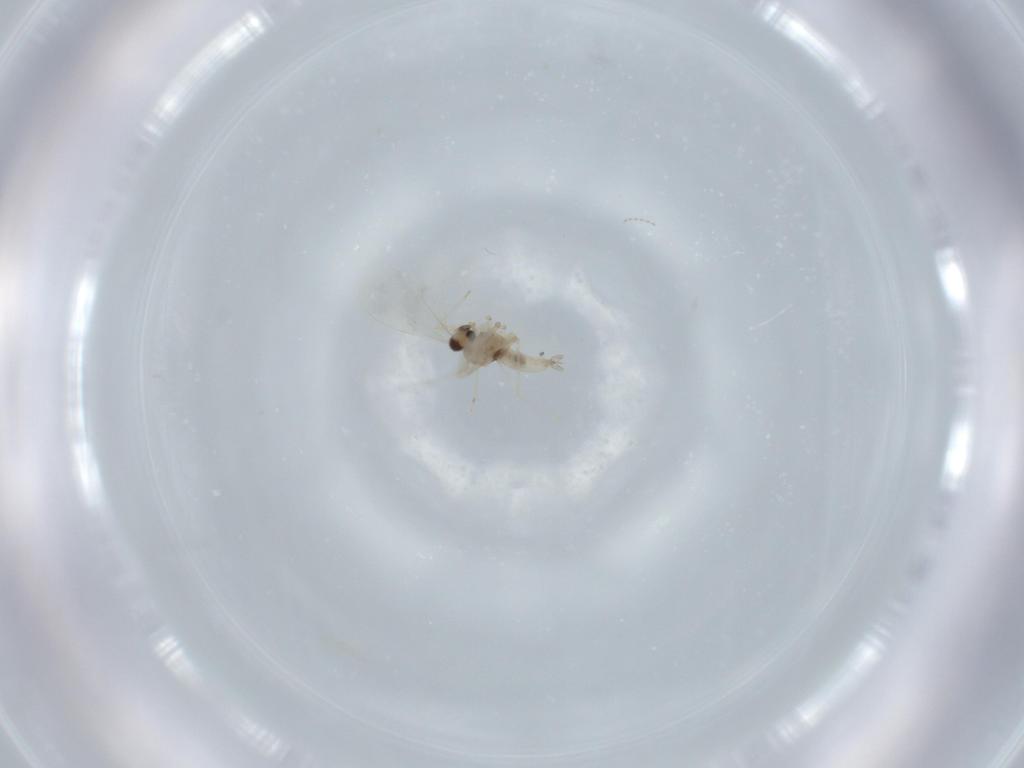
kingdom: Animalia
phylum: Arthropoda
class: Insecta
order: Diptera
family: Cecidomyiidae
